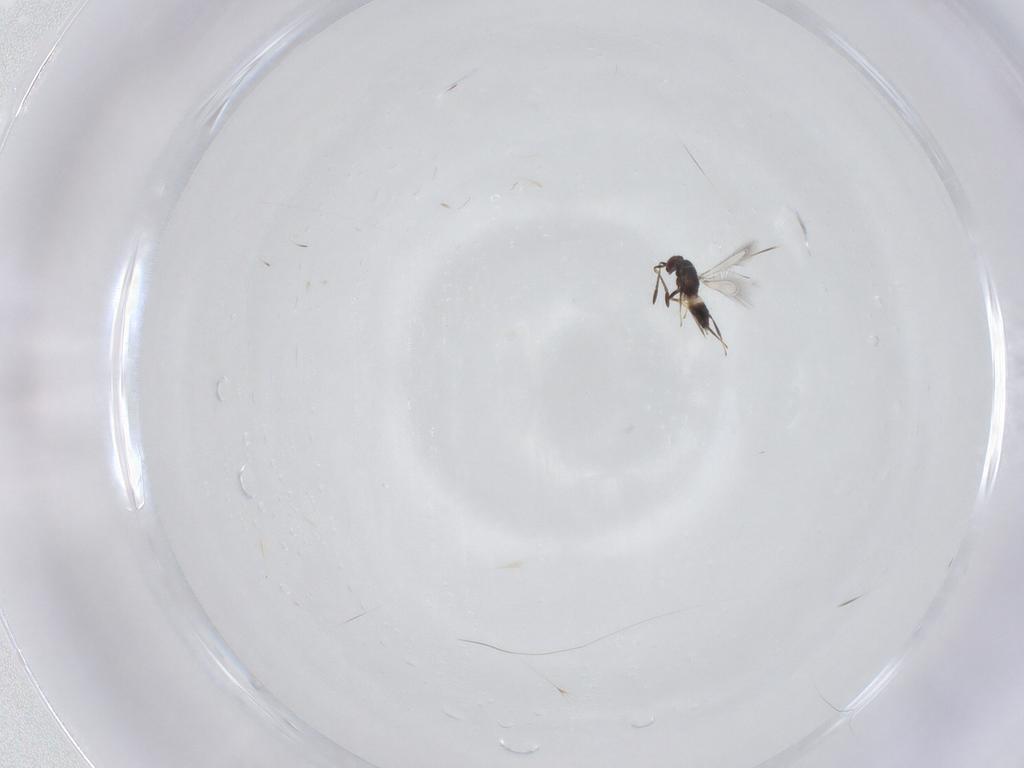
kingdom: Animalia
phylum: Arthropoda
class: Insecta
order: Hymenoptera
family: Mymaridae
